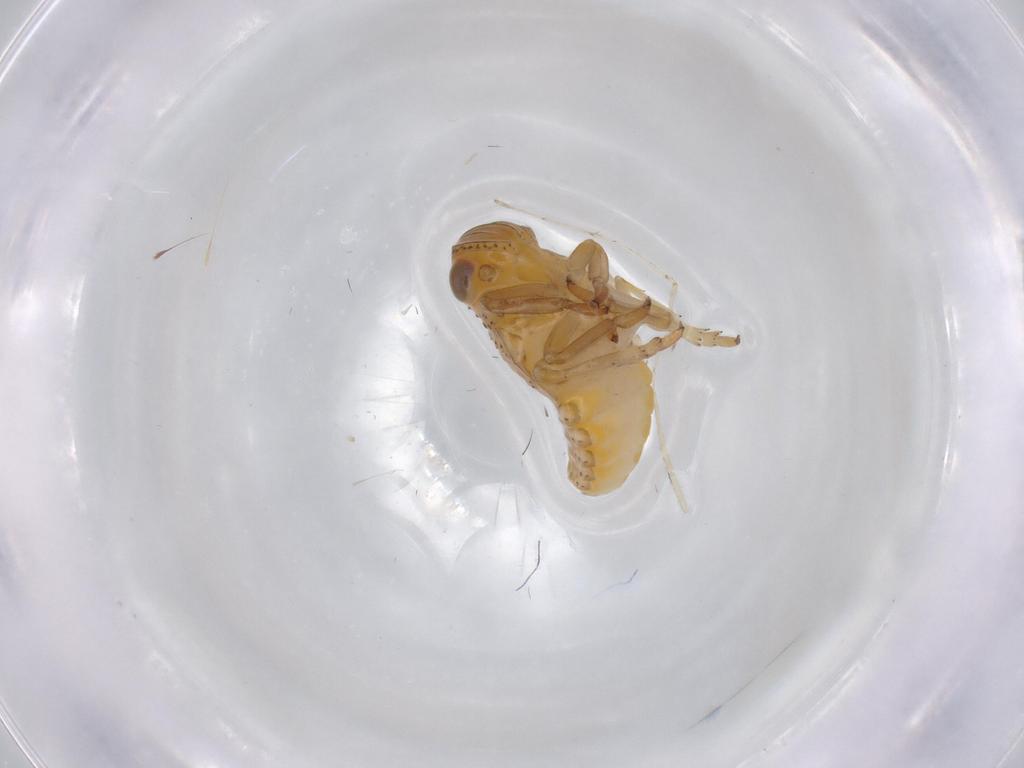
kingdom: Animalia
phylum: Arthropoda
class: Insecta
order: Hemiptera
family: Issidae
